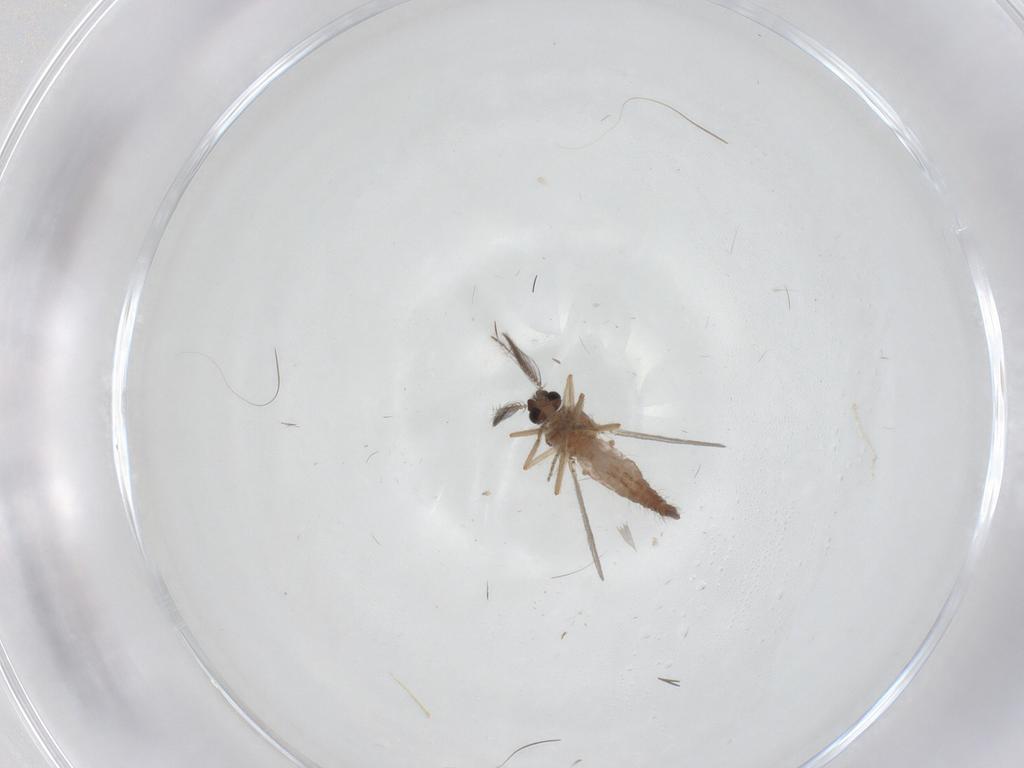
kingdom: Animalia
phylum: Arthropoda
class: Insecta
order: Diptera
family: Ceratopogonidae
